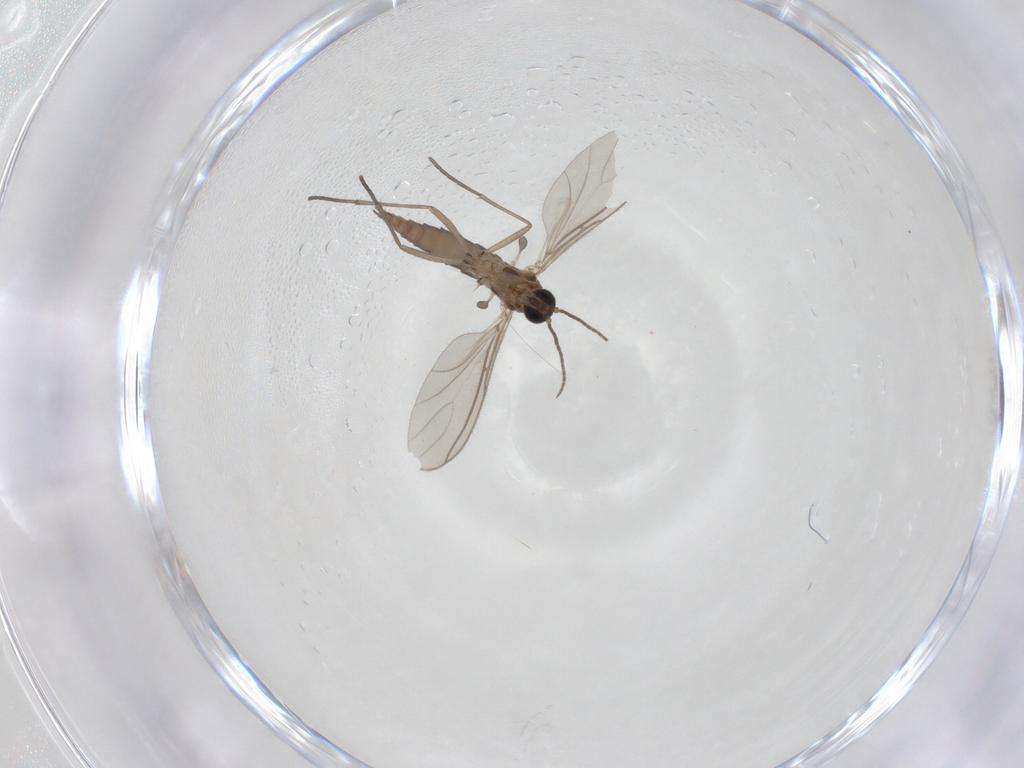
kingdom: Animalia
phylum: Arthropoda
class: Insecta
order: Diptera
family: Sciaridae
